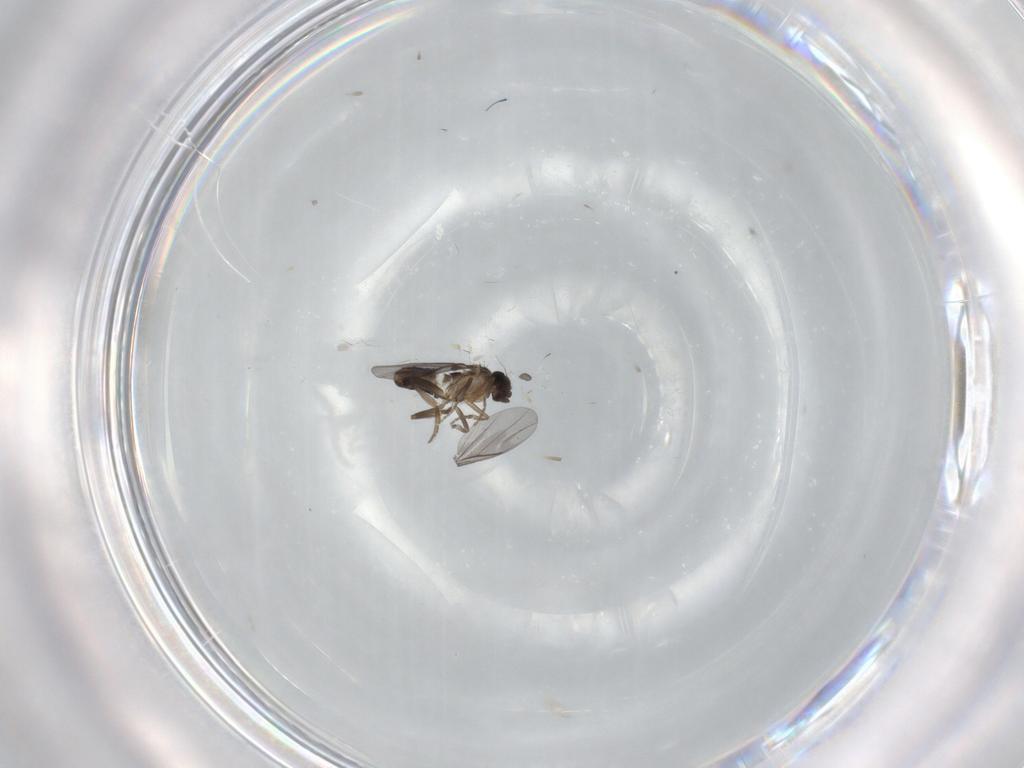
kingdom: Animalia
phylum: Arthropoda
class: Insecta
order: Diptera
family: Phoridae
